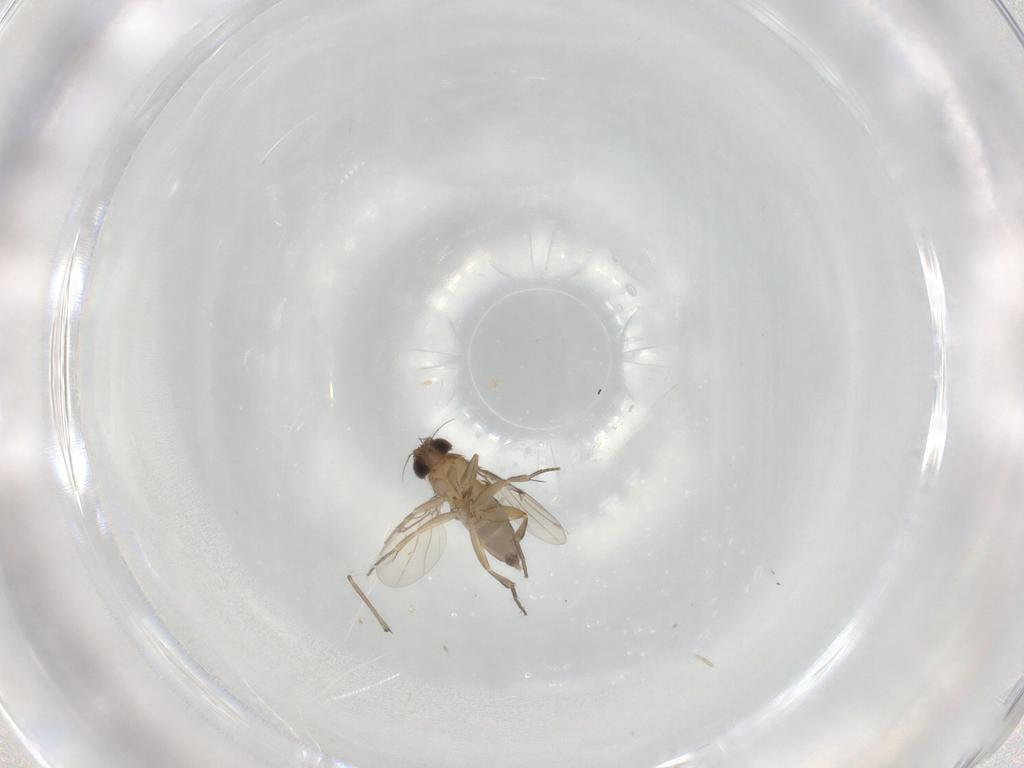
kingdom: Animalia
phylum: Arthropoda
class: Insecta
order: Diptera
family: Phoridae
